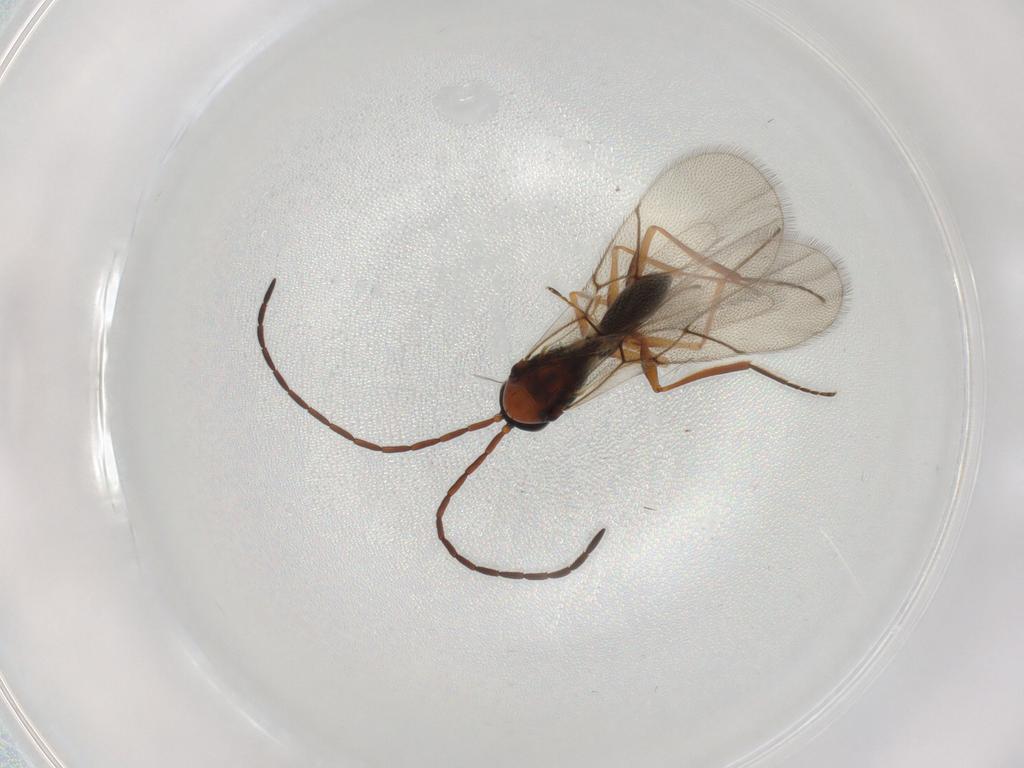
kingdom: Animalia
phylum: Arthropoda
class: Insecta
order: Hymenoptera
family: Figitidae
